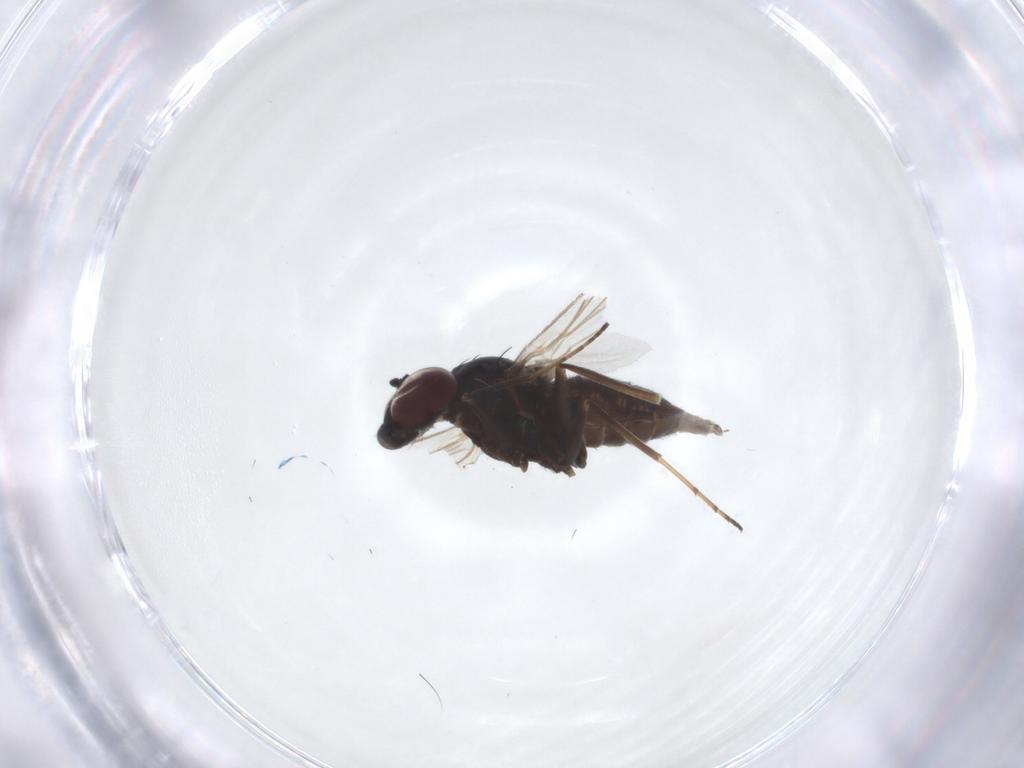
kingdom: Animalia
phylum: Arthropoda
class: Insecta
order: Diptera
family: Dolichopodidae
